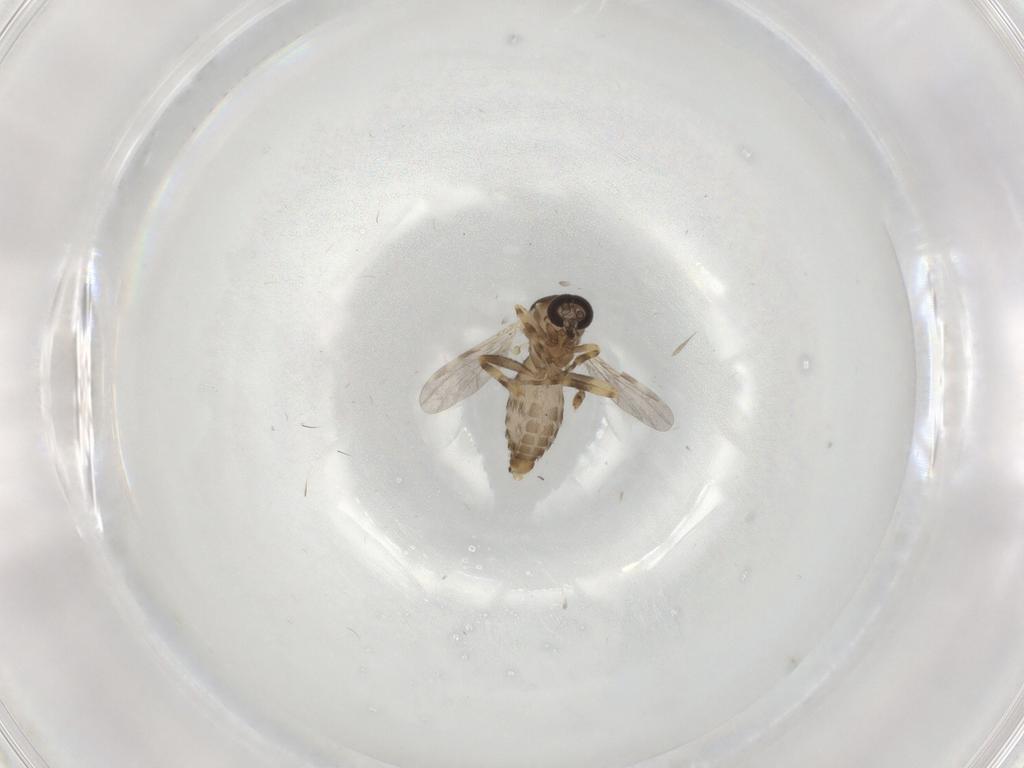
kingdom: Animalia
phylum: Arthropoda
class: Insecta
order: Diptera
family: Ceratopogonidae
